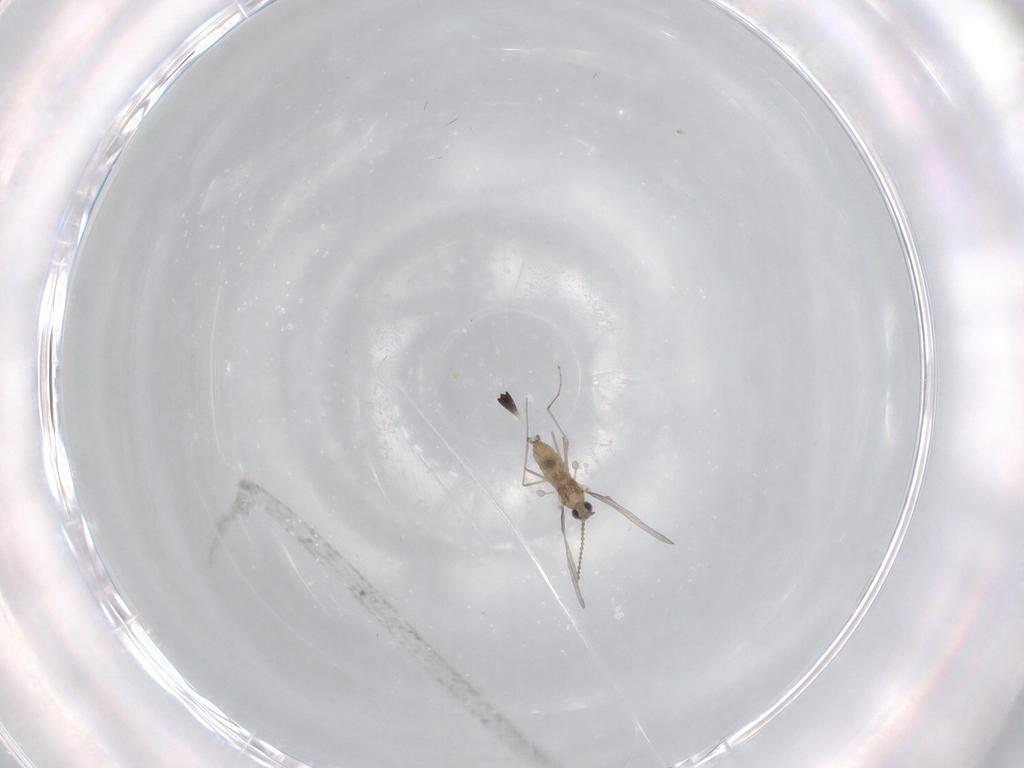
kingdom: Animalia
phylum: Arthropoda
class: Insecta
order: Diptera
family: Cecidomyiidae
